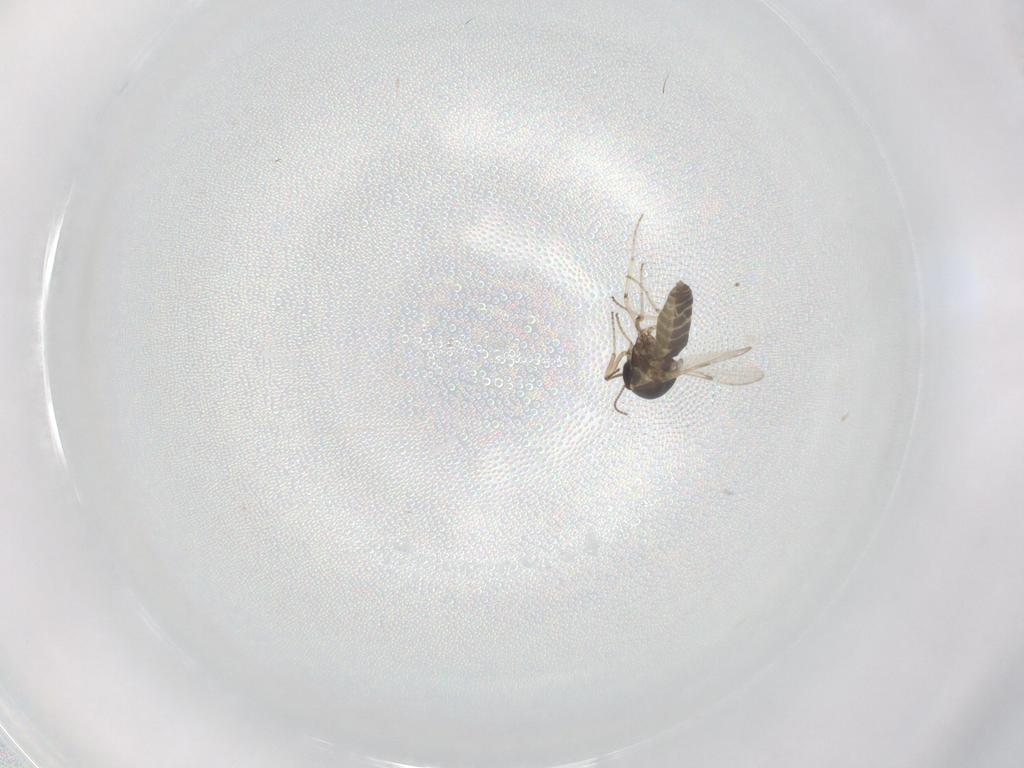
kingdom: Animalia
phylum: Arthropoda
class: Insecta
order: Diptera
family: Ceratopogonidae
